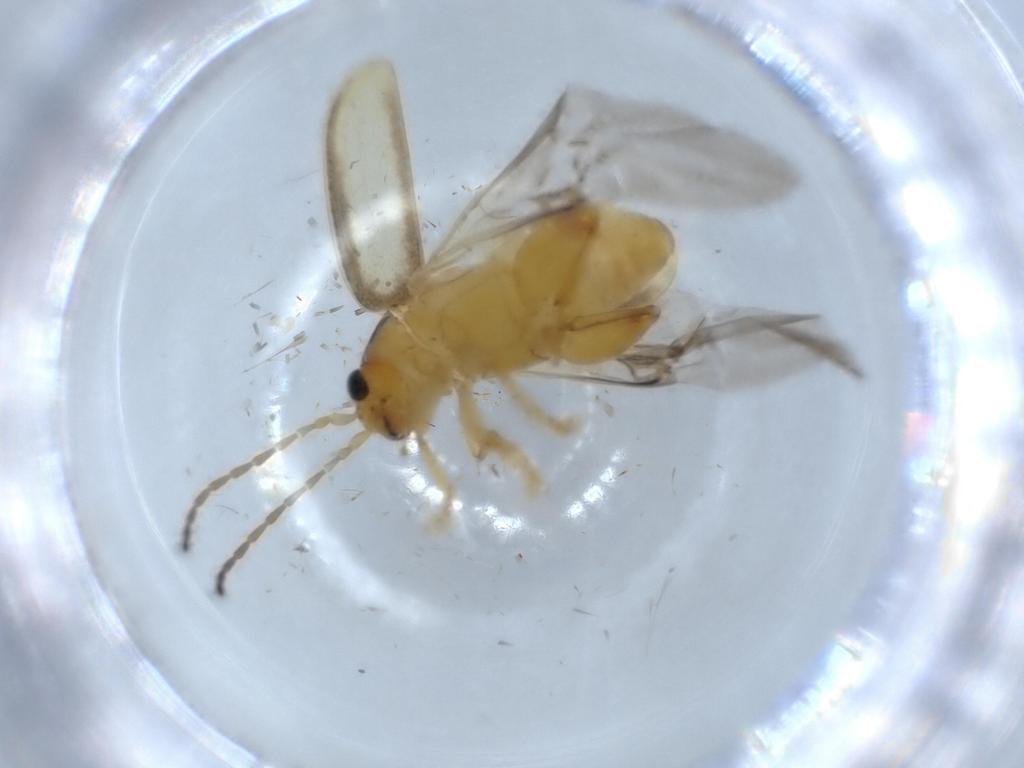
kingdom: Animalia
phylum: Arthropoda
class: Insecta
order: Coleoptera
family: Chrysomelidae
